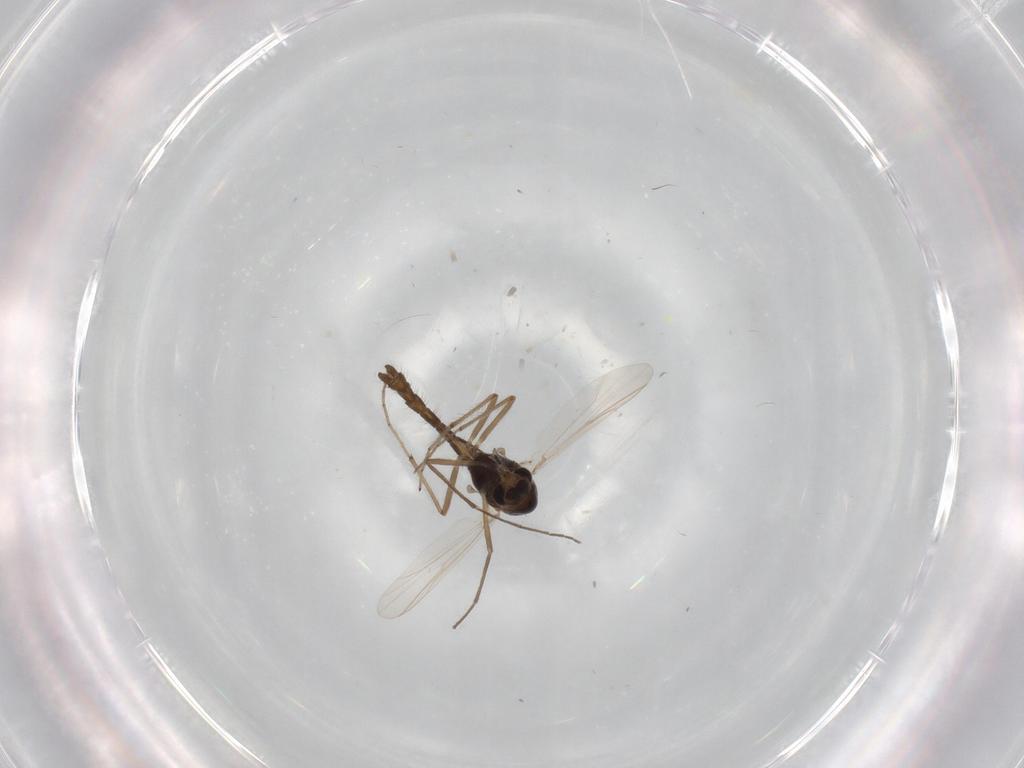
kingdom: Animalia
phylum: Arthropoda
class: Insecta
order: Diptera
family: Chironomidae
